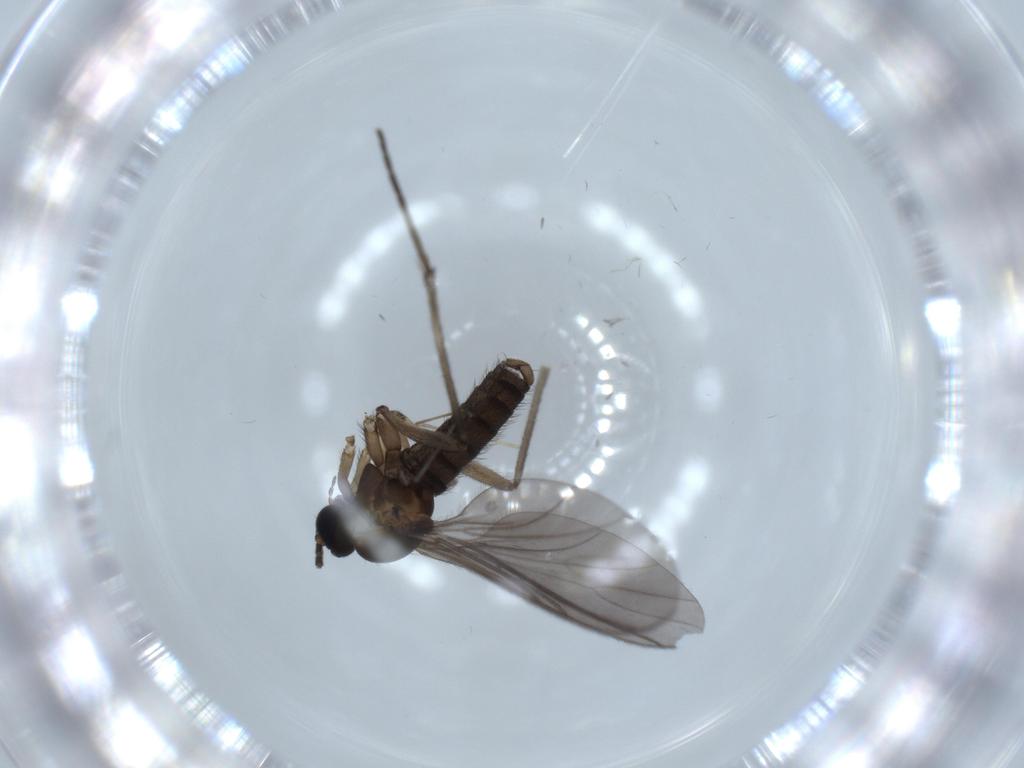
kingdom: Animalia
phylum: Arthropoda
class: Insecta
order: Diptera
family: Sciaridae
